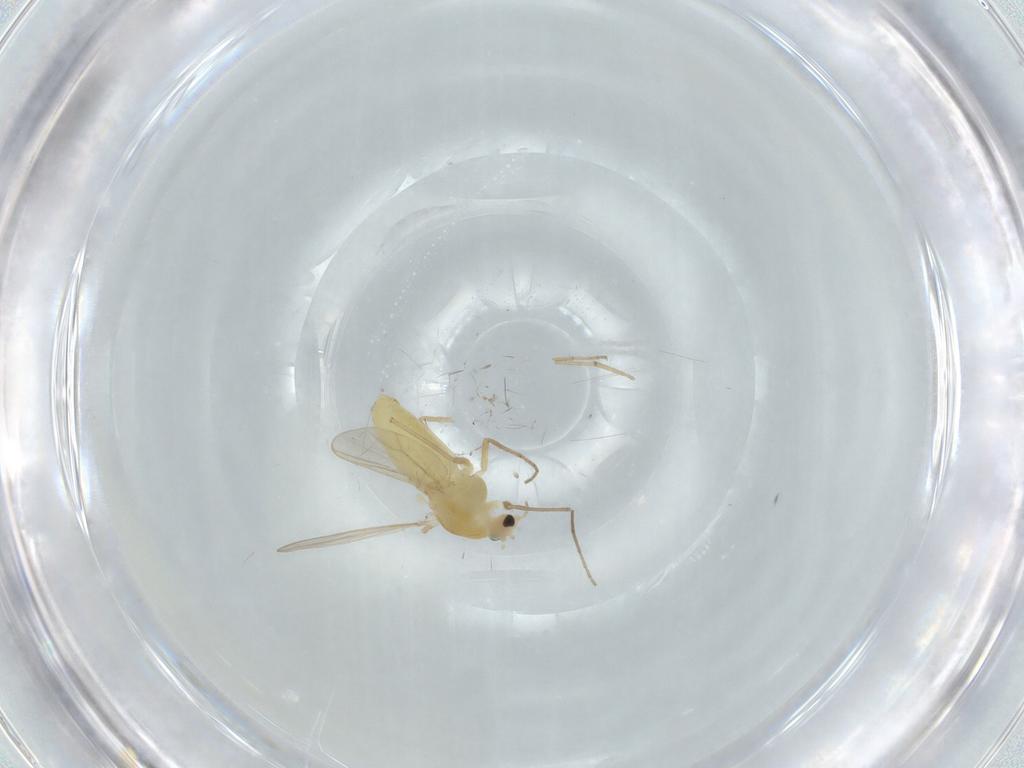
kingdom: Animalia
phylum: Arthropoda
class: Insecta
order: Diptera
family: Chironomidae
